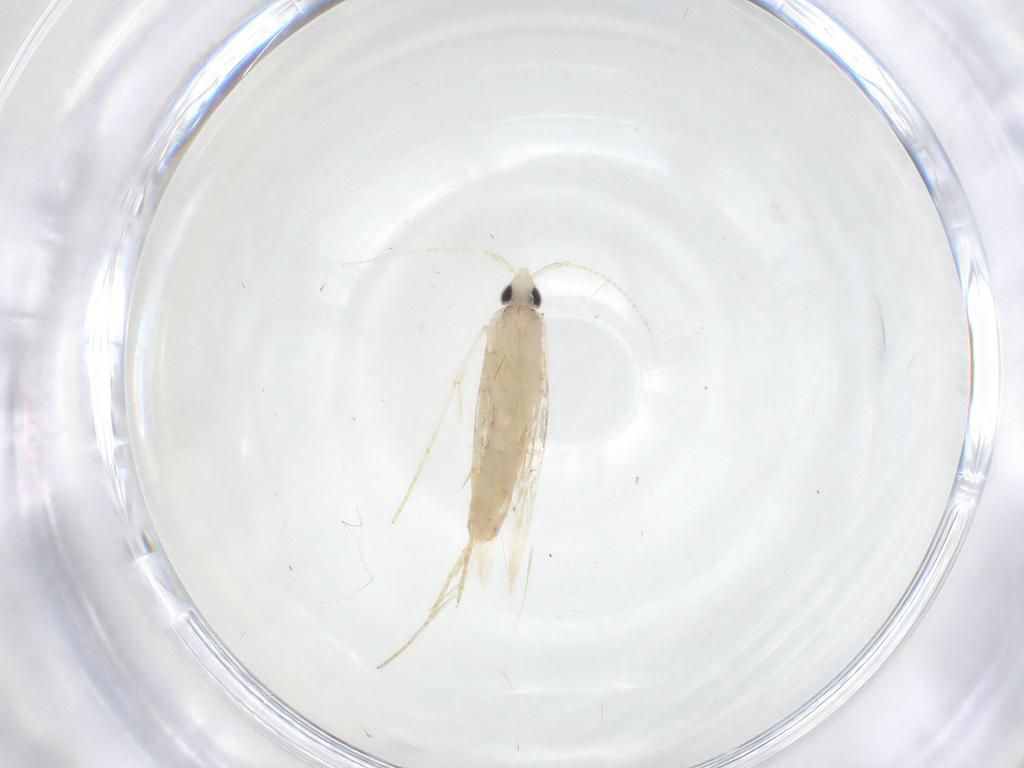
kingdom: Animalia
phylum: Arthropoda
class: Insecta
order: Lepidoptera
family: Tineidae
